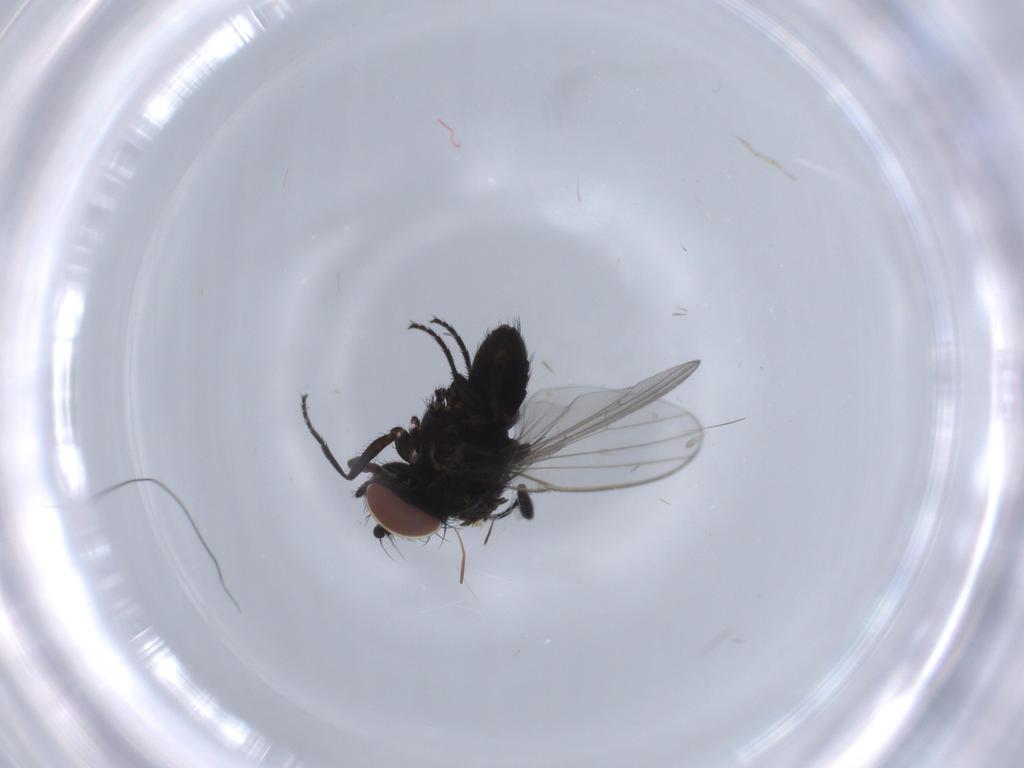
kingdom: Animalia
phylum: Arthropoda
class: Insecta
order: Diptera
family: Milichiidae
